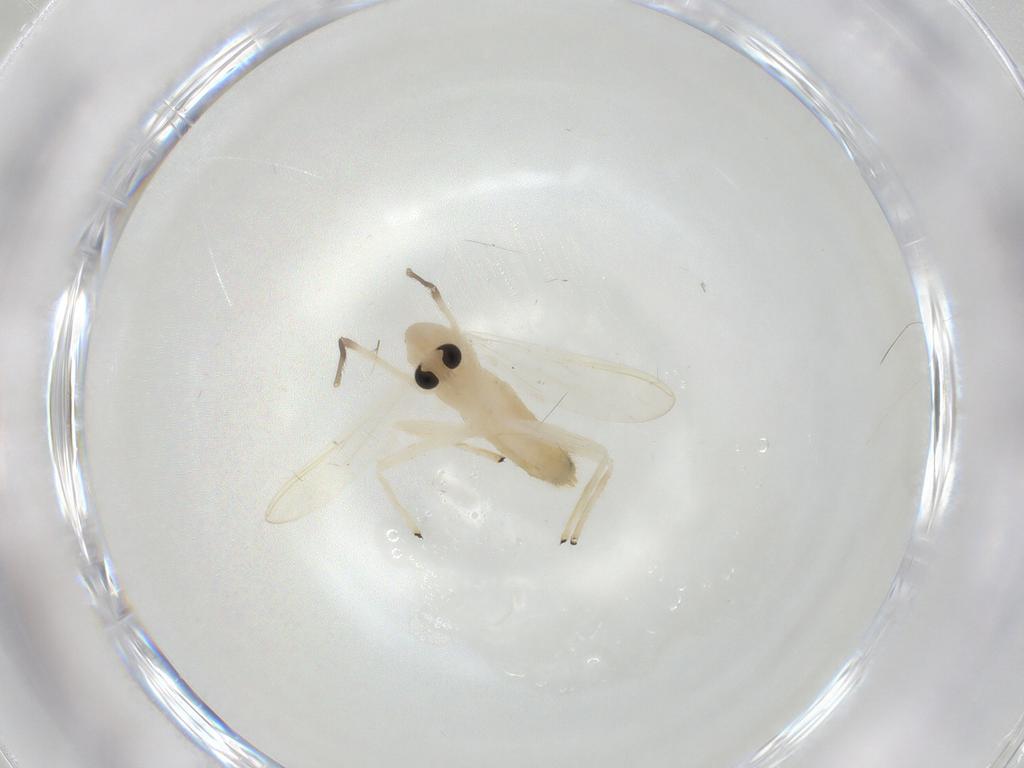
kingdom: Animalia
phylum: Arthropoda
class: Insecta
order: Diptera
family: Chironomidae
